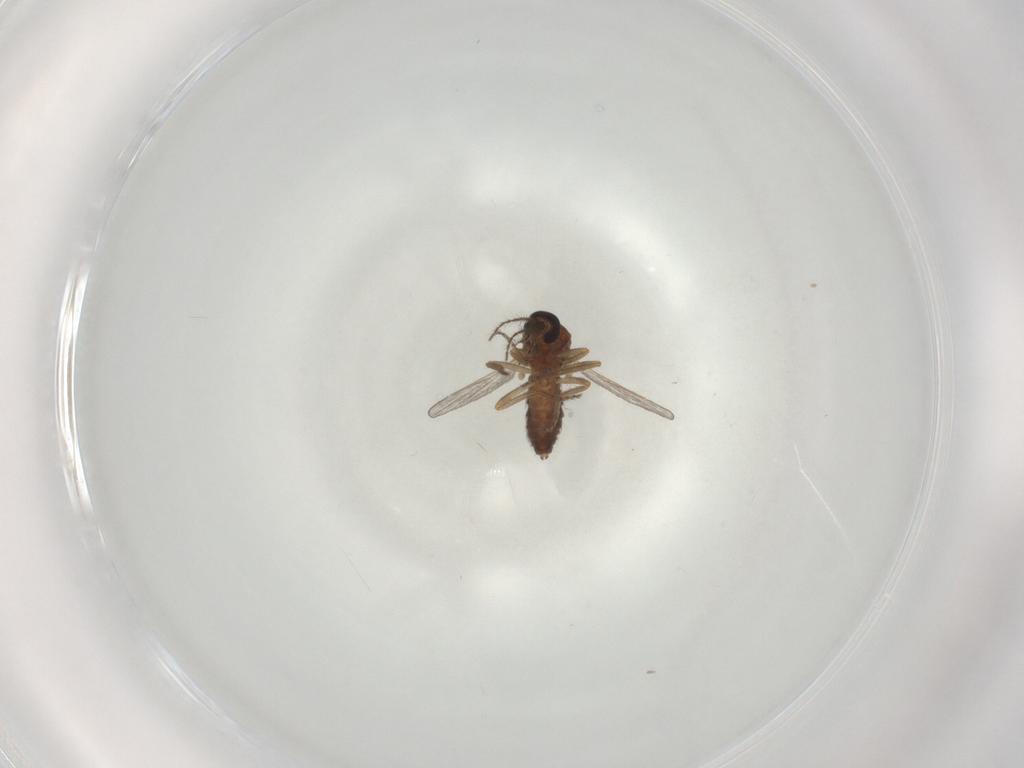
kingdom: Animalia
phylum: Arthropoda
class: Insecta
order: Diptera
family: Ceratopogonidae
